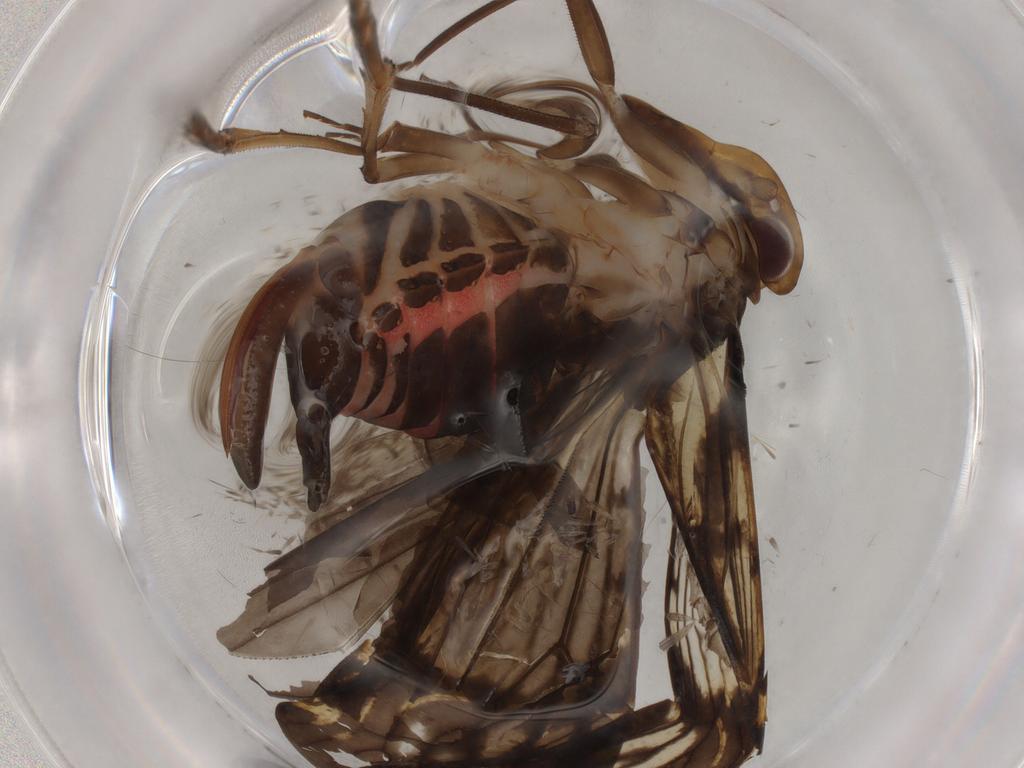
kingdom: Animalia
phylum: Arthropoda
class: Insecta
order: Hemiptera
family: Cixiidae
